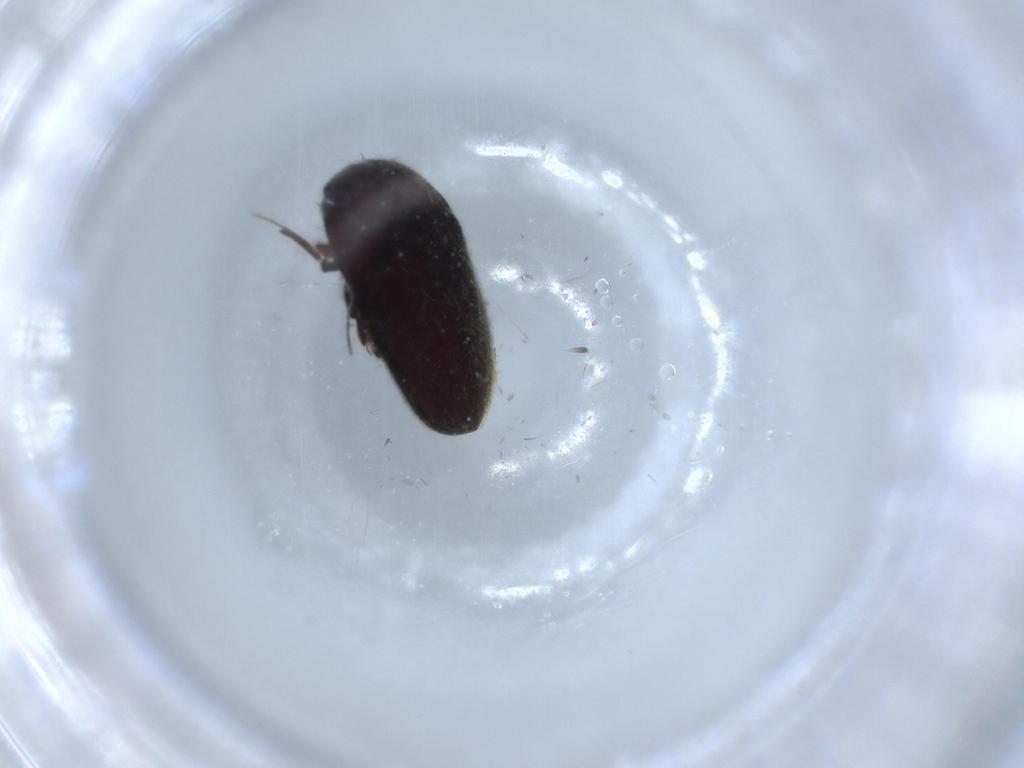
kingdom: Animalia
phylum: Arthropoda
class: Insecta
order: Coleoptera
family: Throscidae
